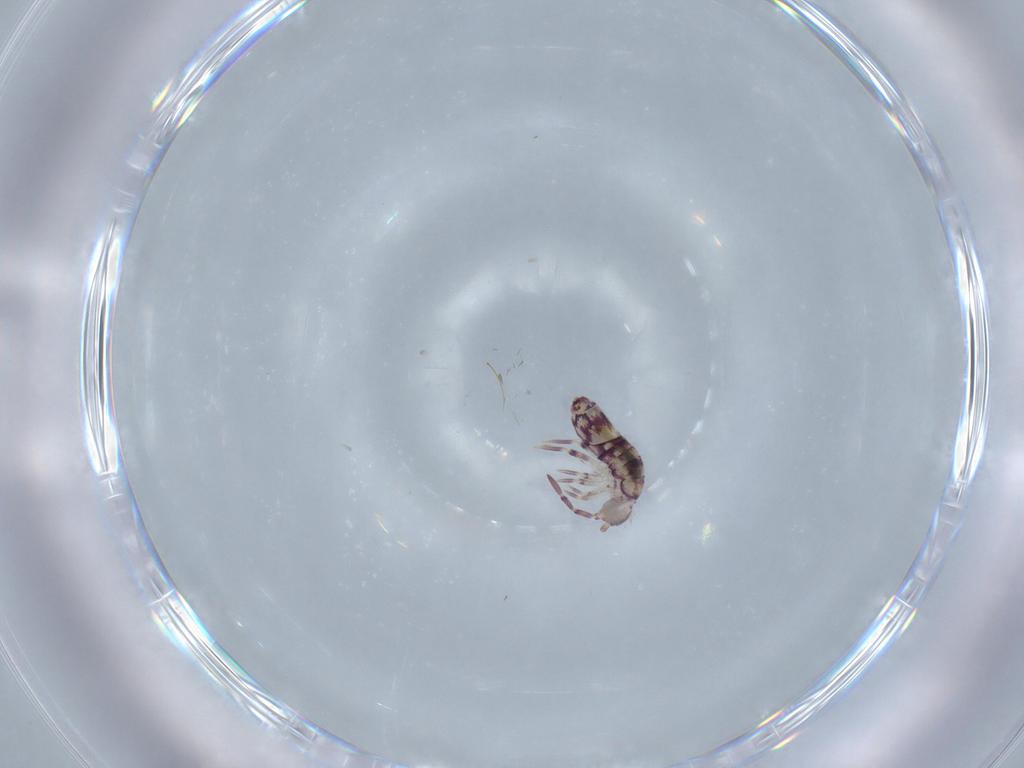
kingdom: Animalia
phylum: Arthropoda
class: Collembola
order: Entomobryomorpha
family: Entomobryidae
